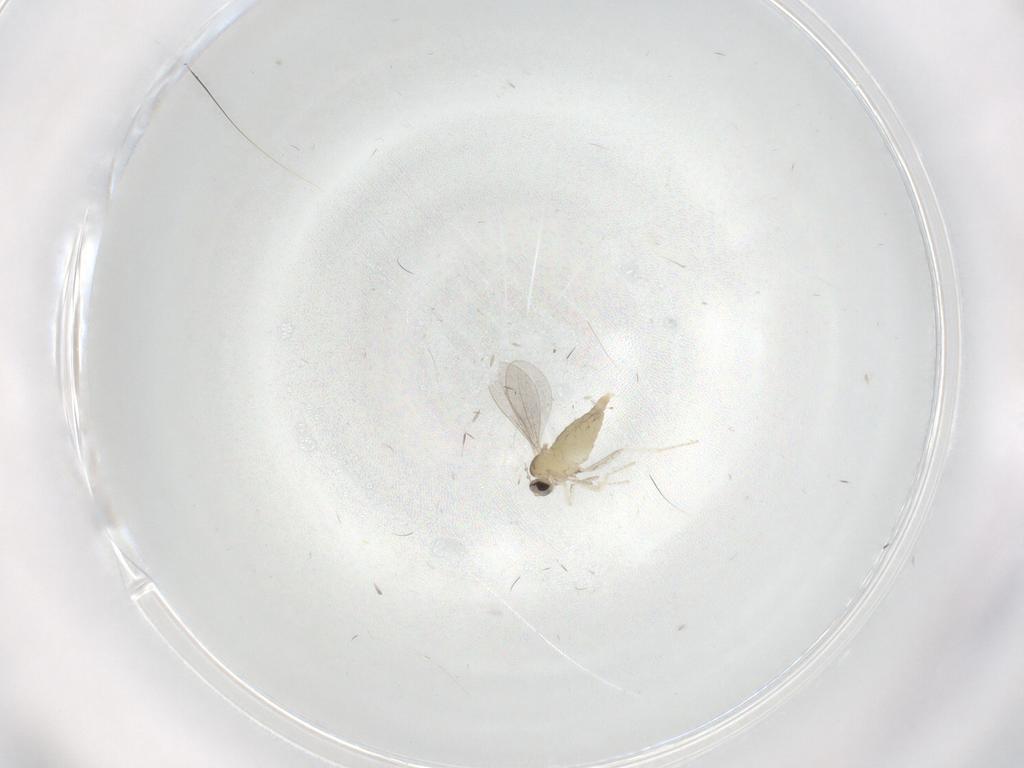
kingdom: Animalia
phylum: Arthropoda
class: Insecta
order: Diptera
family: Cecidomyiidae
